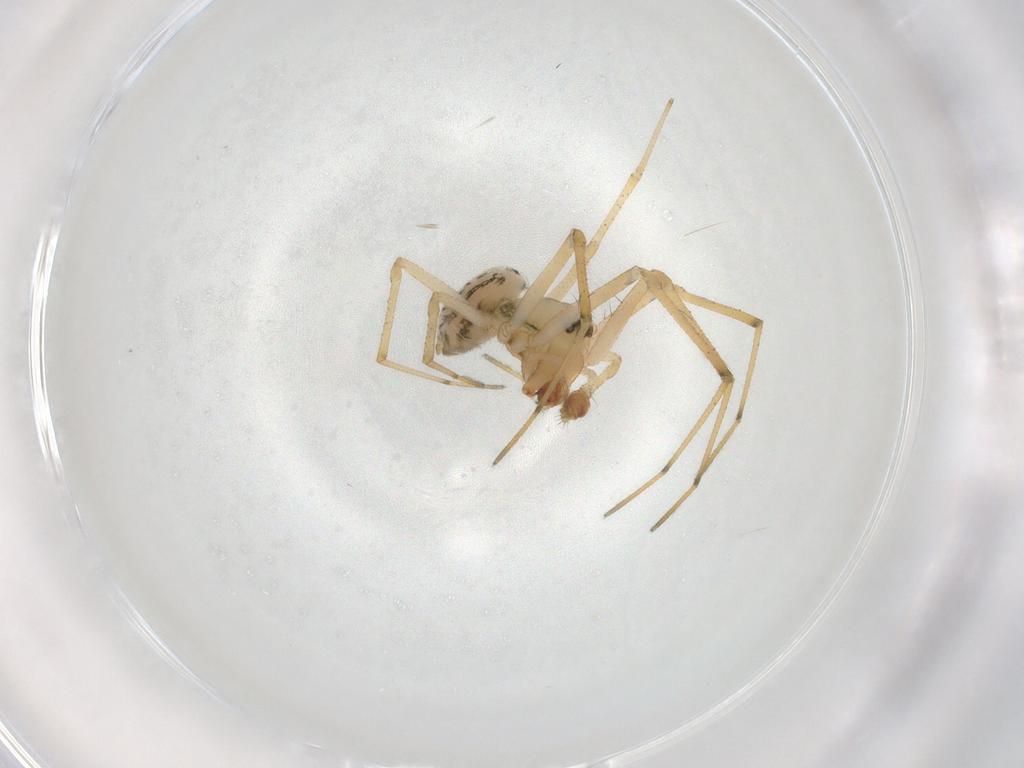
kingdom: Animalia
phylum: Arthropoda
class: Arachnida
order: Araneae
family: Linyphiidae
